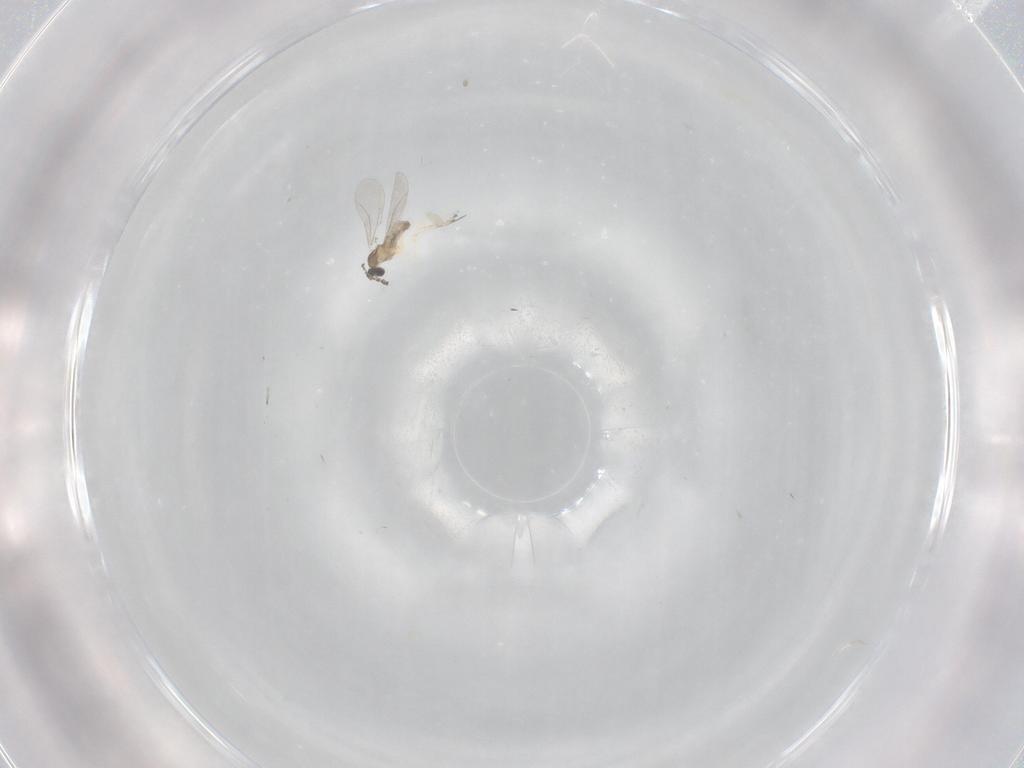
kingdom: Animalia
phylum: Arthropoda
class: Insecta
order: Diptera
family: Cecidomyiidae
